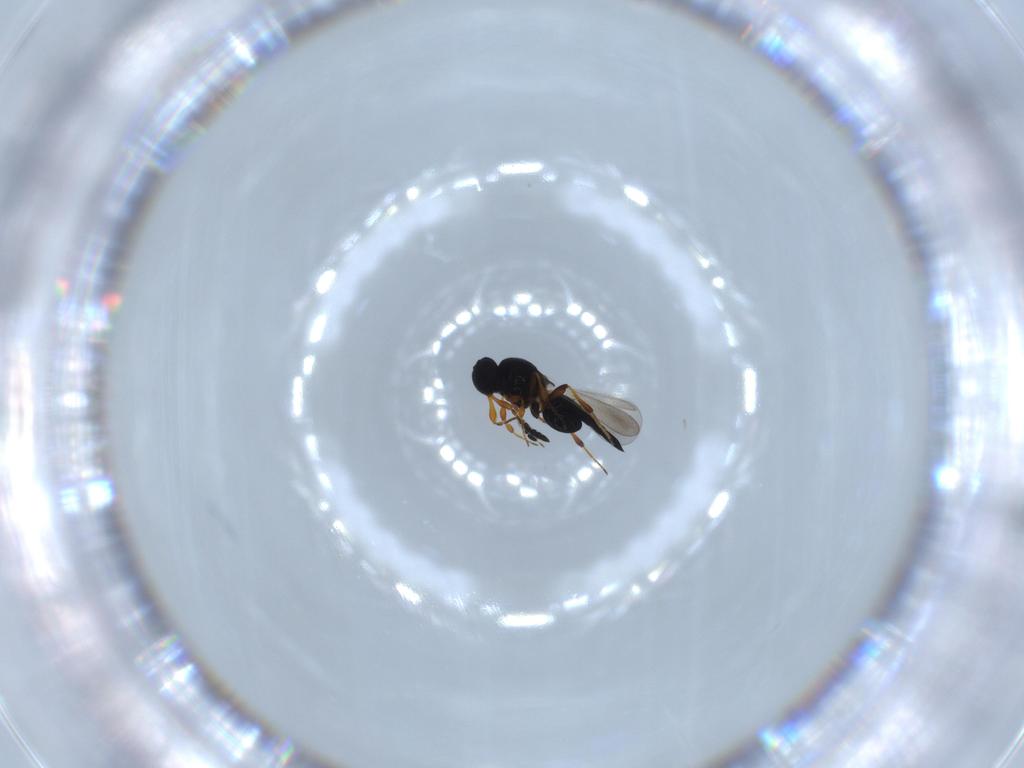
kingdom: Animalia
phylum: Arthropoda
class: Insecta
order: Hymenoptera
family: Platygastridae
